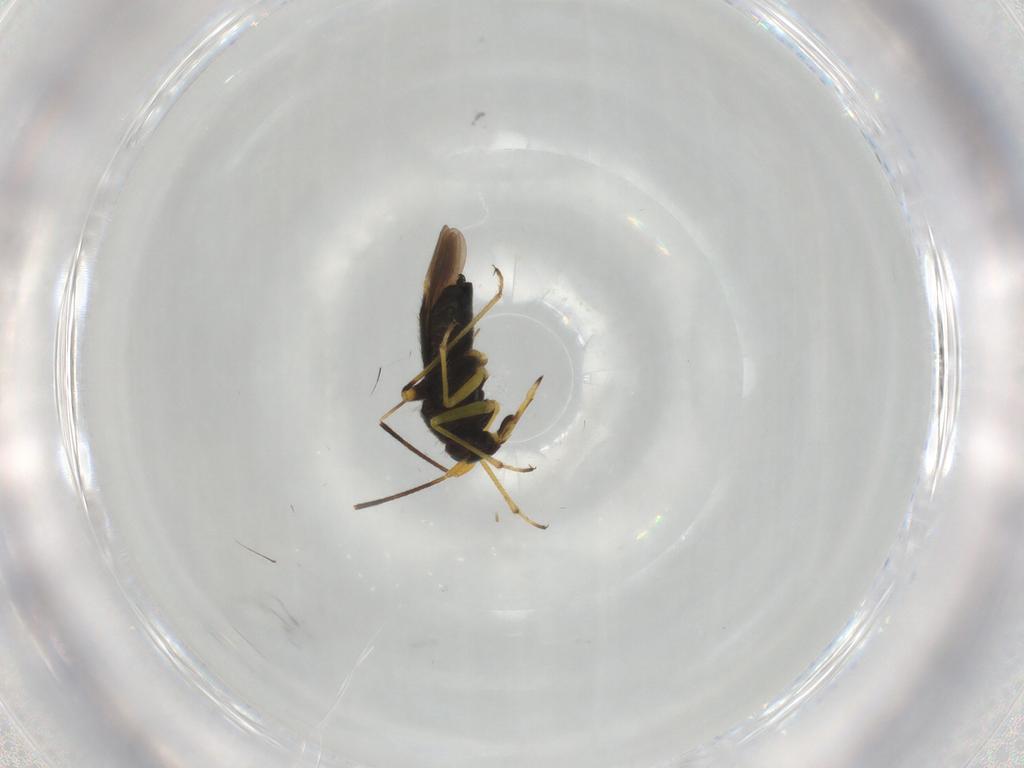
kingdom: Animalia
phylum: Arthropoda
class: Insecta
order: Hemiptera
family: Miridae
